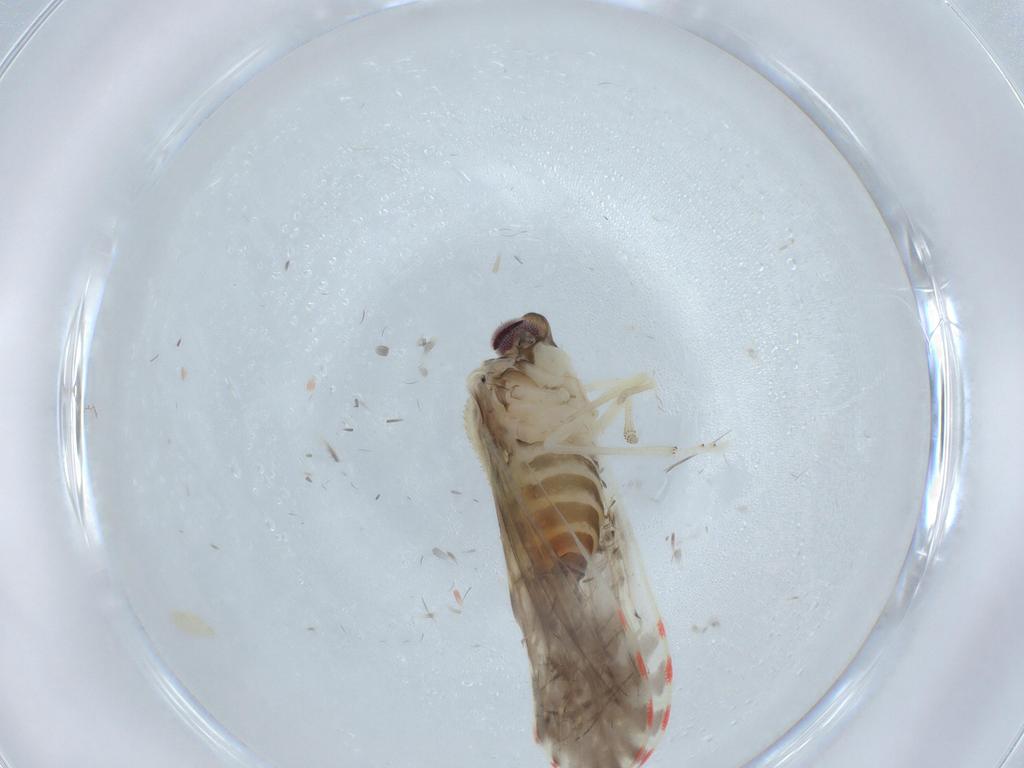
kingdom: Animalia
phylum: Arthropoda
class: Insecta
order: Hemiptera
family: Derbidae
